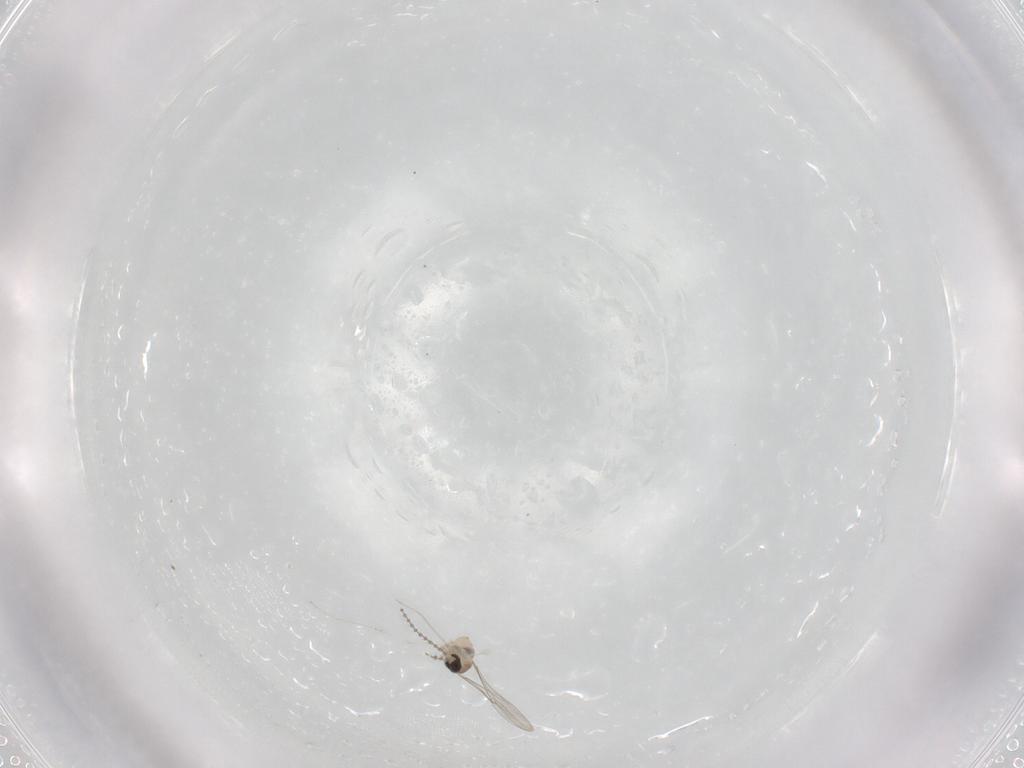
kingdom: Animalia
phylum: Arthropoda
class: Insecta
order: Diptera
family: Cecidomyiidae
